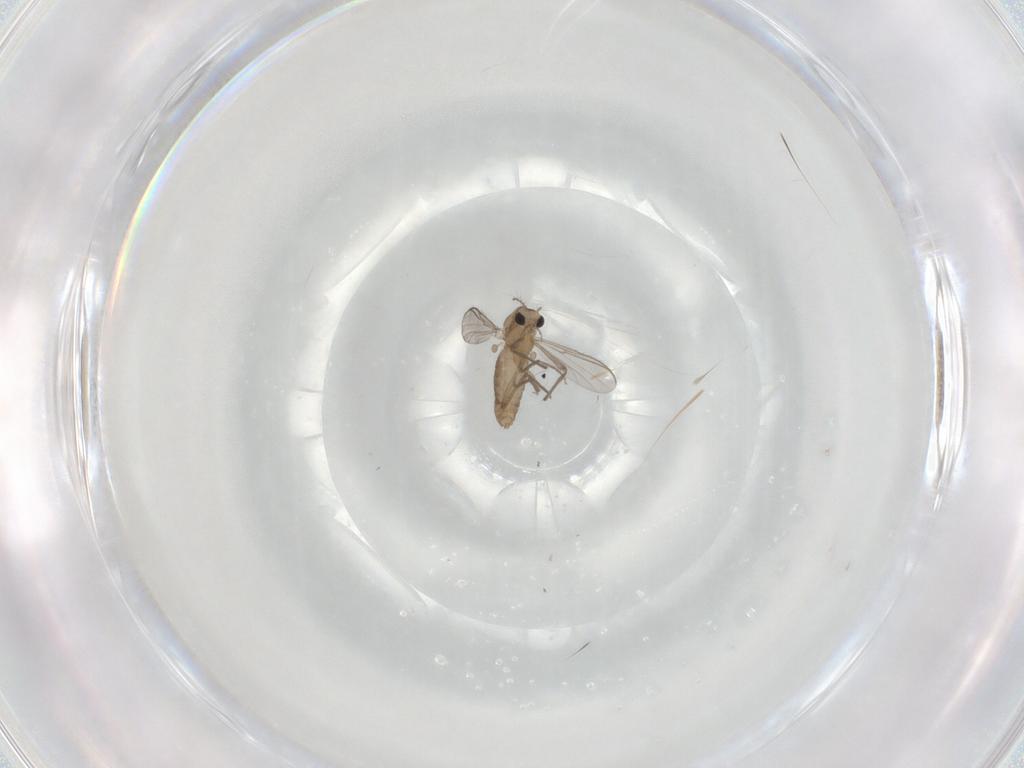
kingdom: Animalia
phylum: Arthropoda
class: Insecta
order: Diptera
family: Chironomidae
